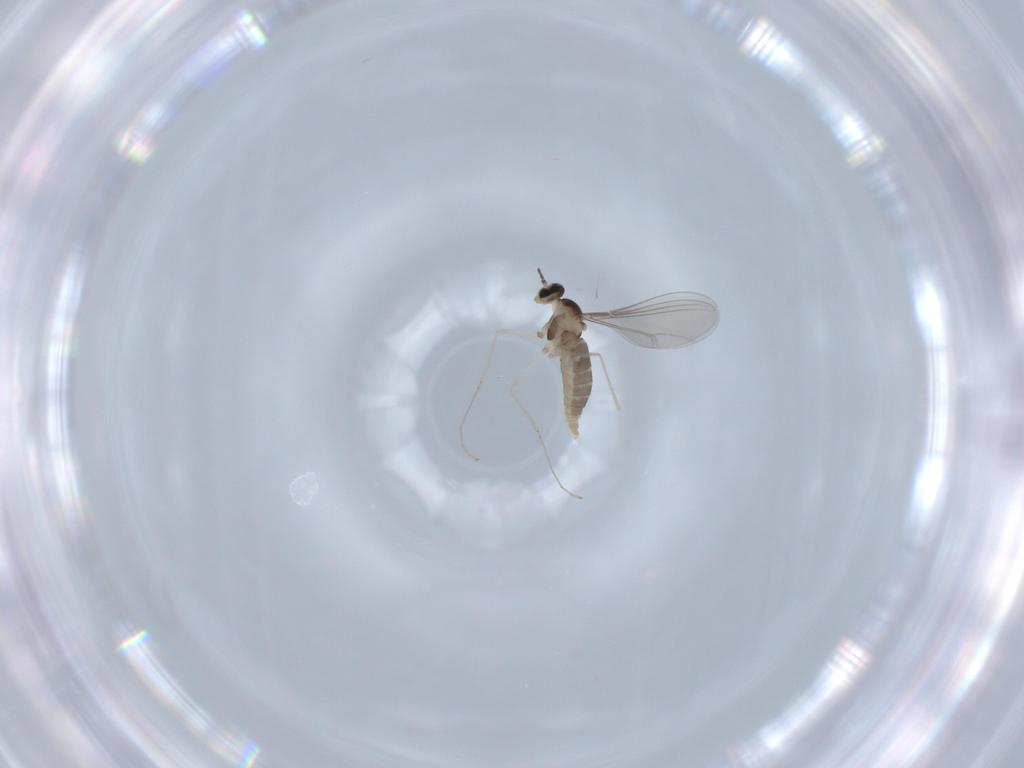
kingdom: Animalia
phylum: Arthropoda
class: Insecta
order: Diptera
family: Cecidomyiidae
